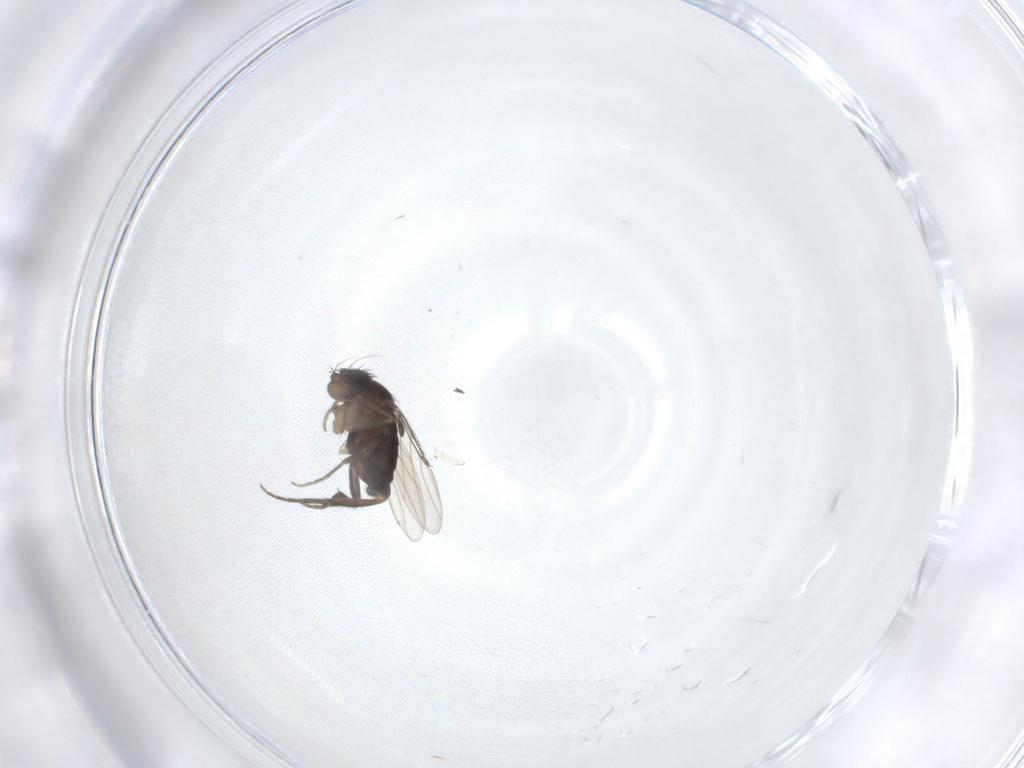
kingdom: Animalia
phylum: Arthropoda
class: Insecta
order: Diptera
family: Phoridae
